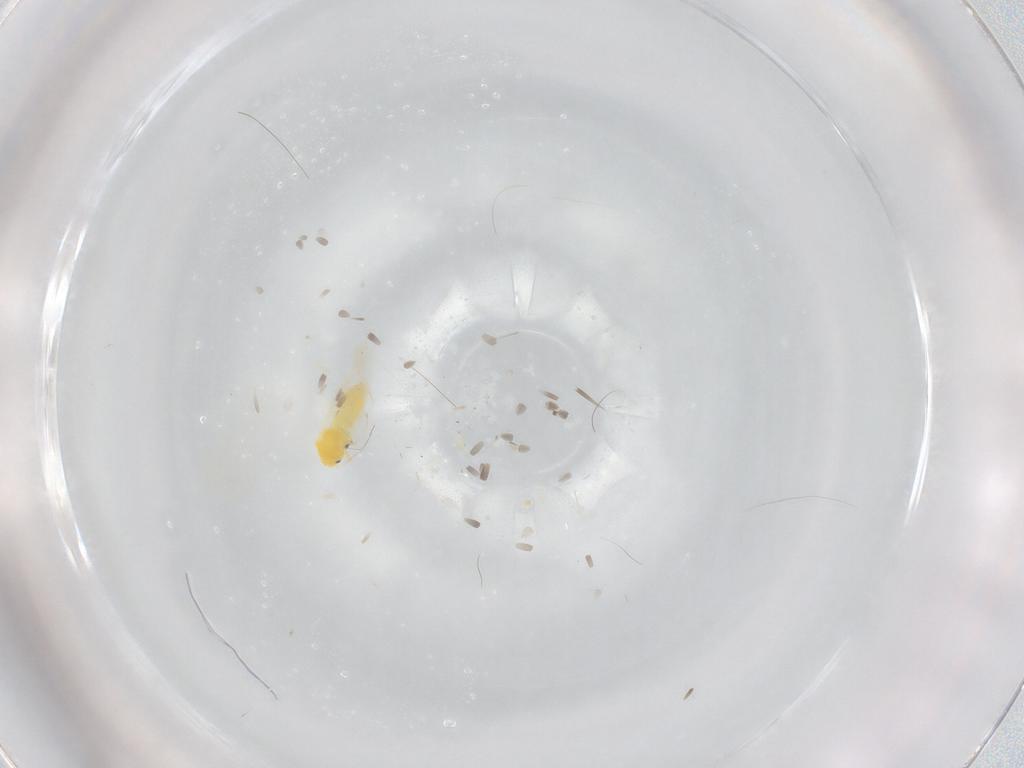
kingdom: Animalia
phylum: Arthropoda
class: Insecta
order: Hemiptera
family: Aleyrodidae
